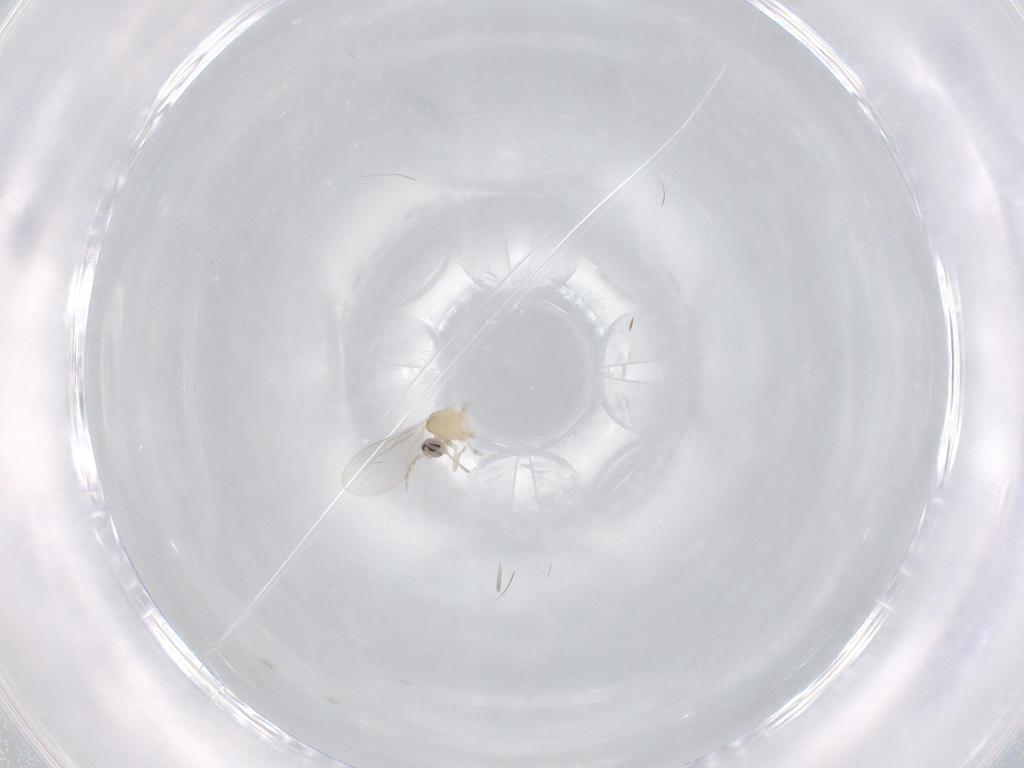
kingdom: Animalia
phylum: Arthropoda
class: Insecta
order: Diptera
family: Cecidomyiidae
